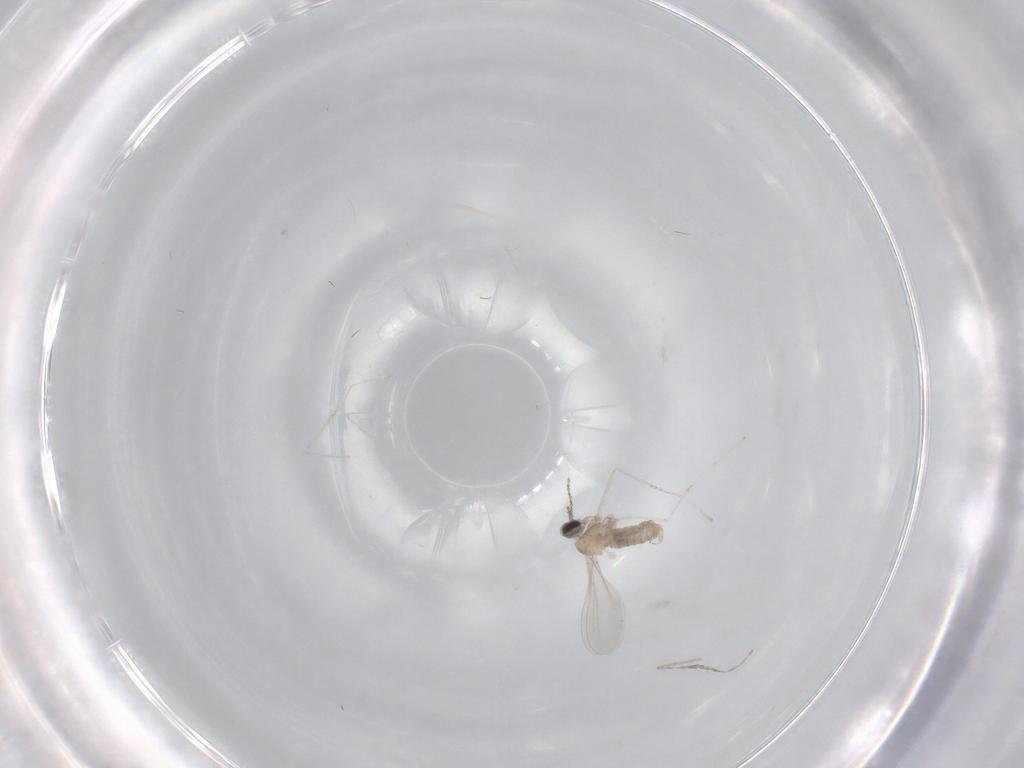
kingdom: Animalia
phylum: Arthropoda
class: Insecta
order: Diptera
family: Cecidomyiidae
